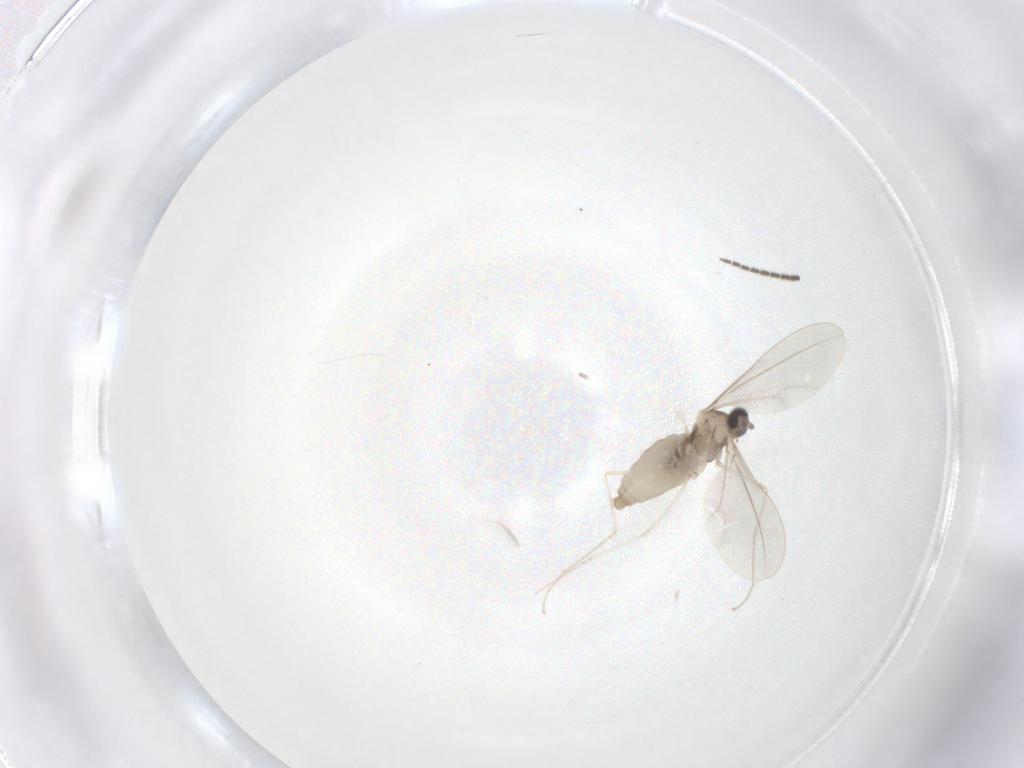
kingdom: Animalia
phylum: Arthropoda
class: Insecta
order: Diptera
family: Cecidomyiidae
